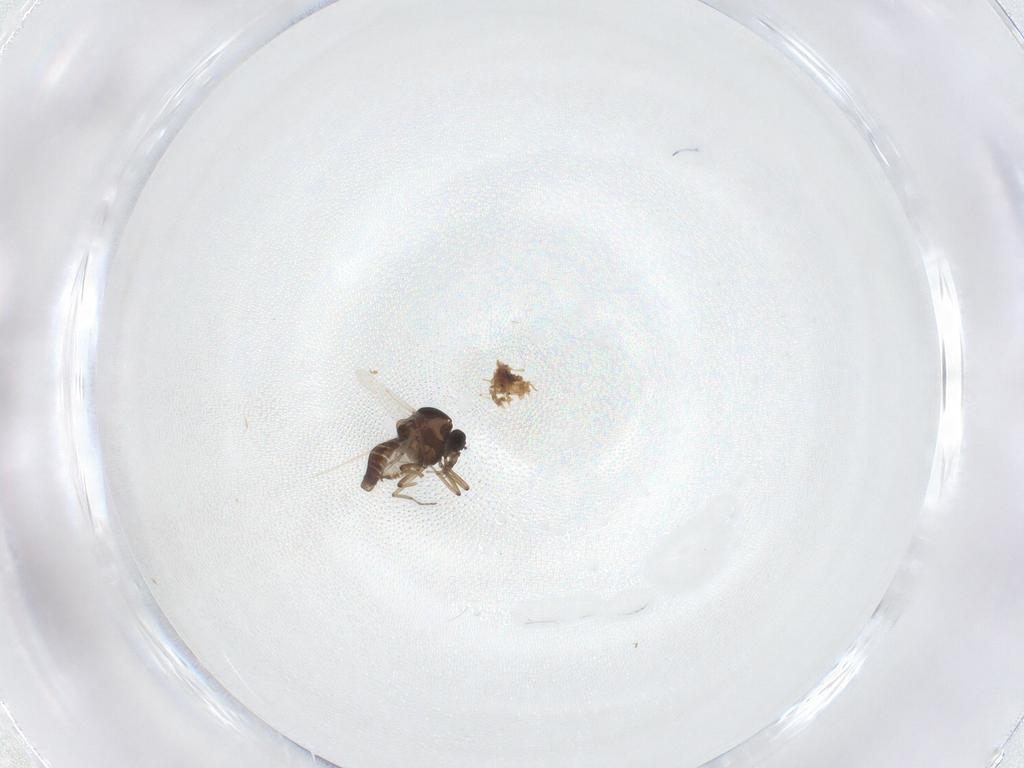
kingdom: Animalia
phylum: Arthropoda
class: Insecta
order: Diptera
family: Ceratopogonidae
